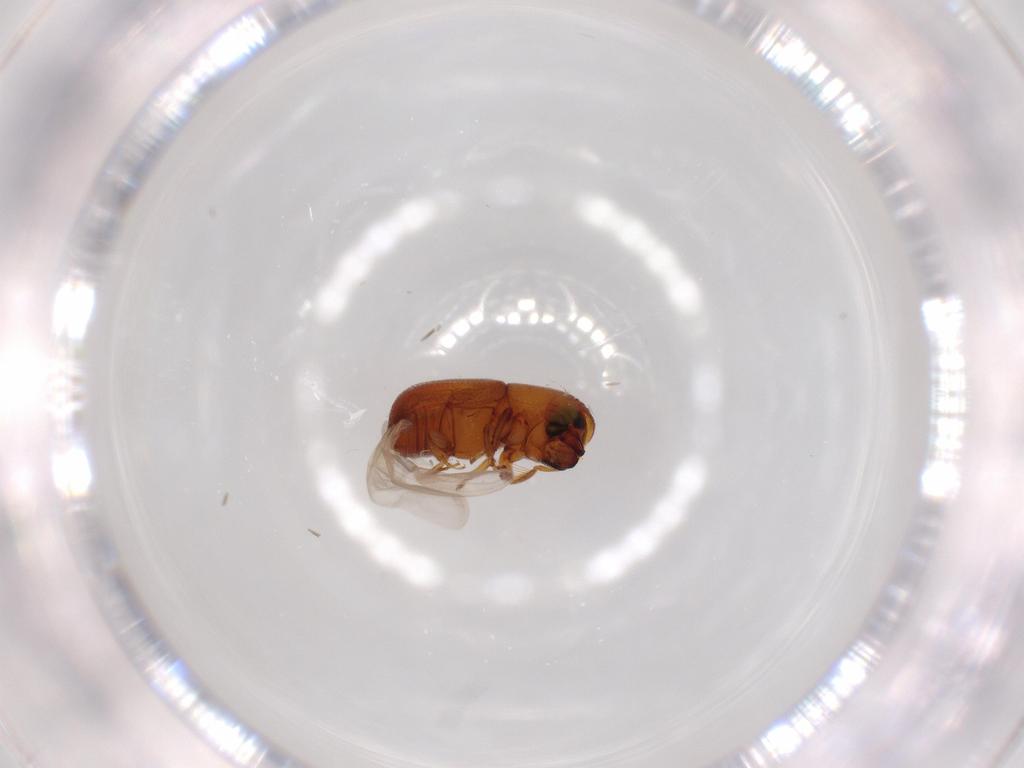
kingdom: Animalia
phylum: Arthropoda
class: Insecta
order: Coleoptera
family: Curculionidae
